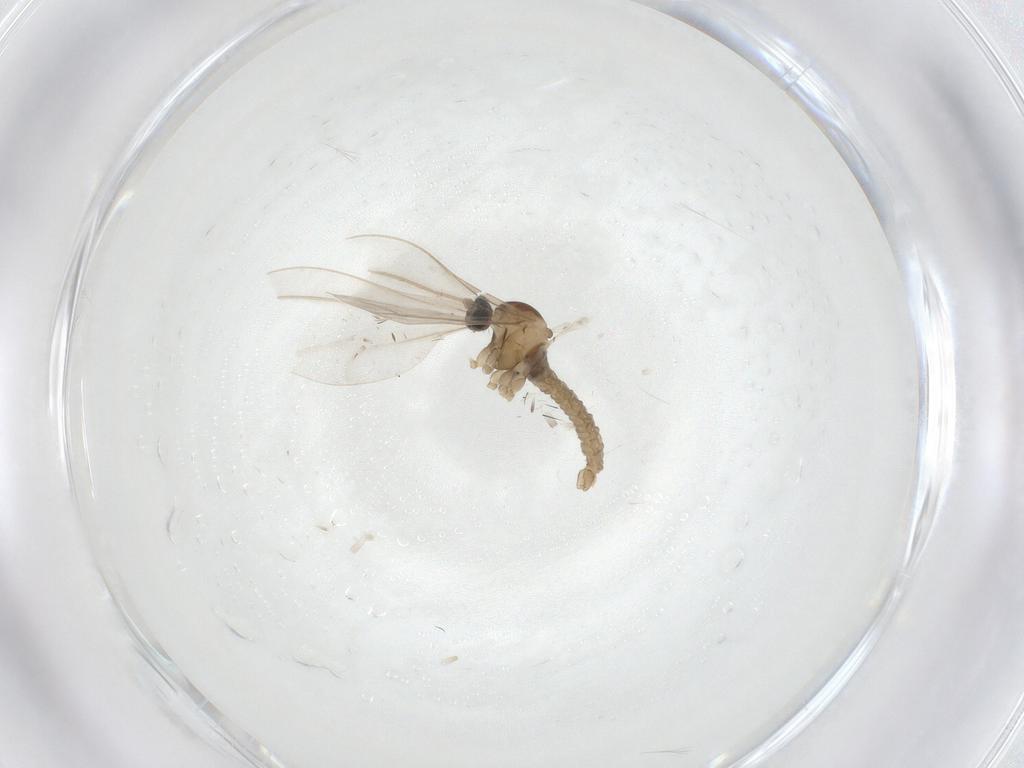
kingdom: Animalia
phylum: Arthropoda
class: Insecta
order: Diptera
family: Cecidomyiidae
